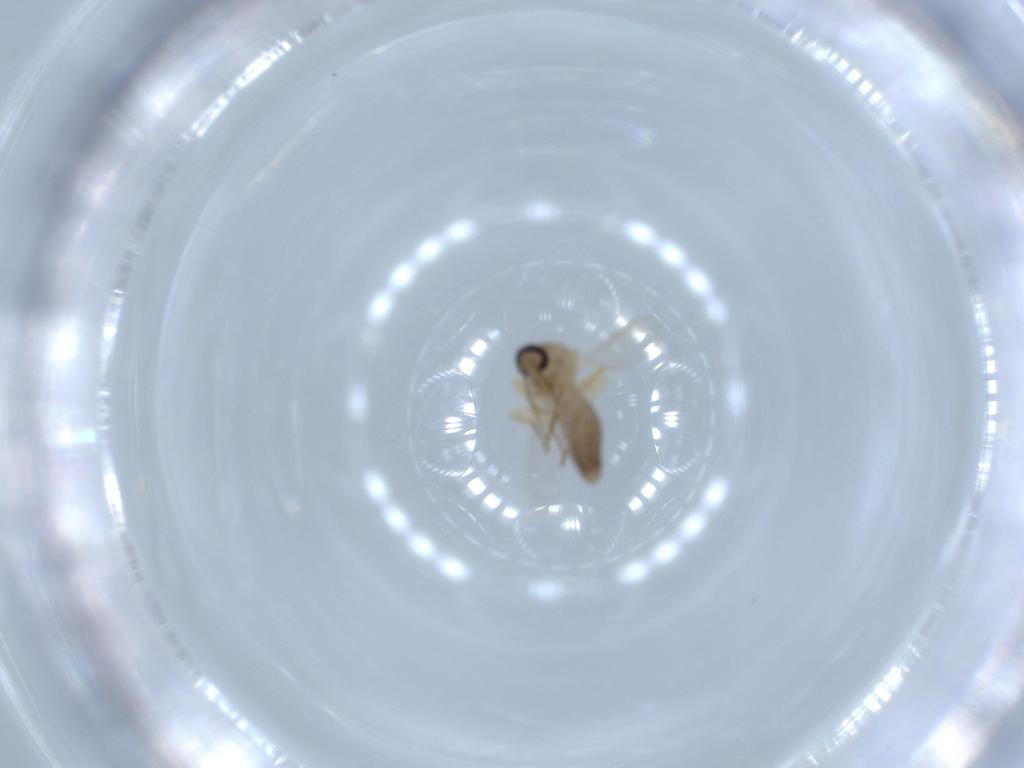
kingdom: Animalia
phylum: Arthropoda
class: Insecta
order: Diptera
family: Ceratopogonidae
